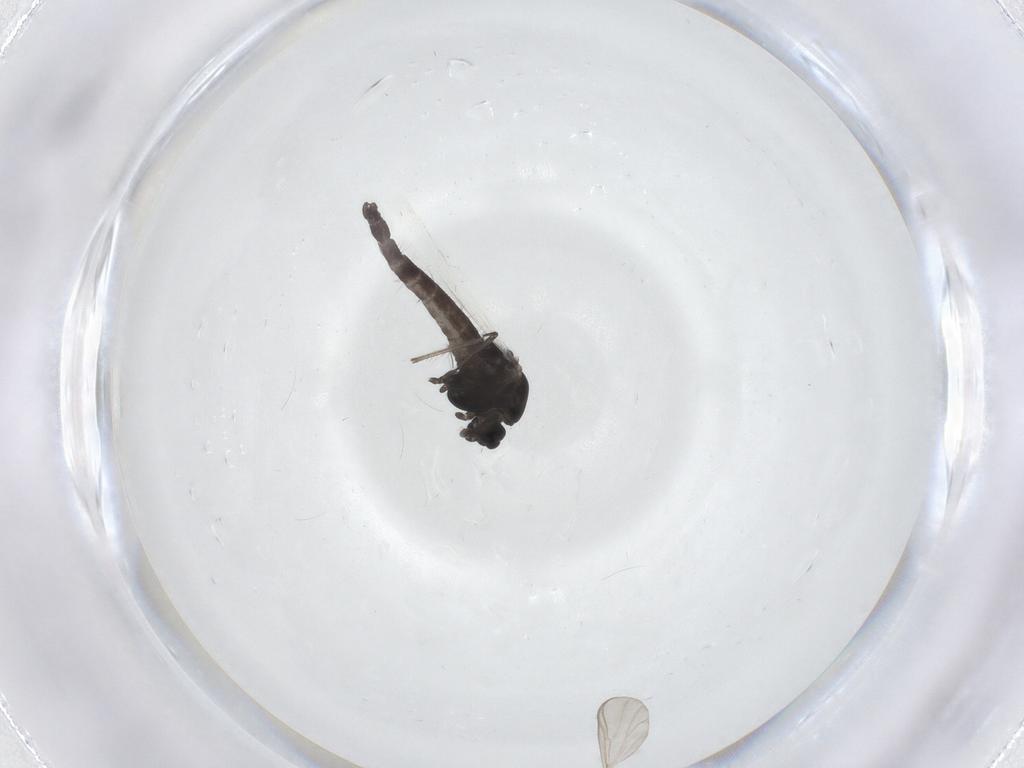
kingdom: Animalia
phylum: Arthropoda
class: Insecta
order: Diptera
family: Chironomidae
